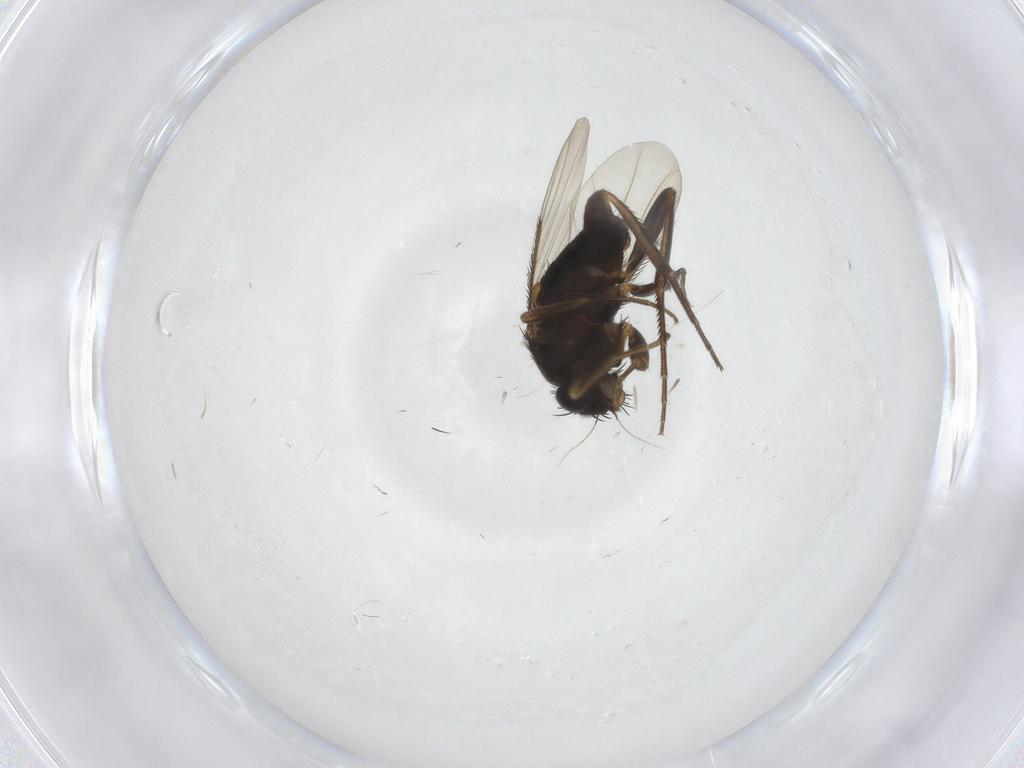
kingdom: Animalia
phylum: Arthropoda
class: Insecta
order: Diptera
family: Phoridae
